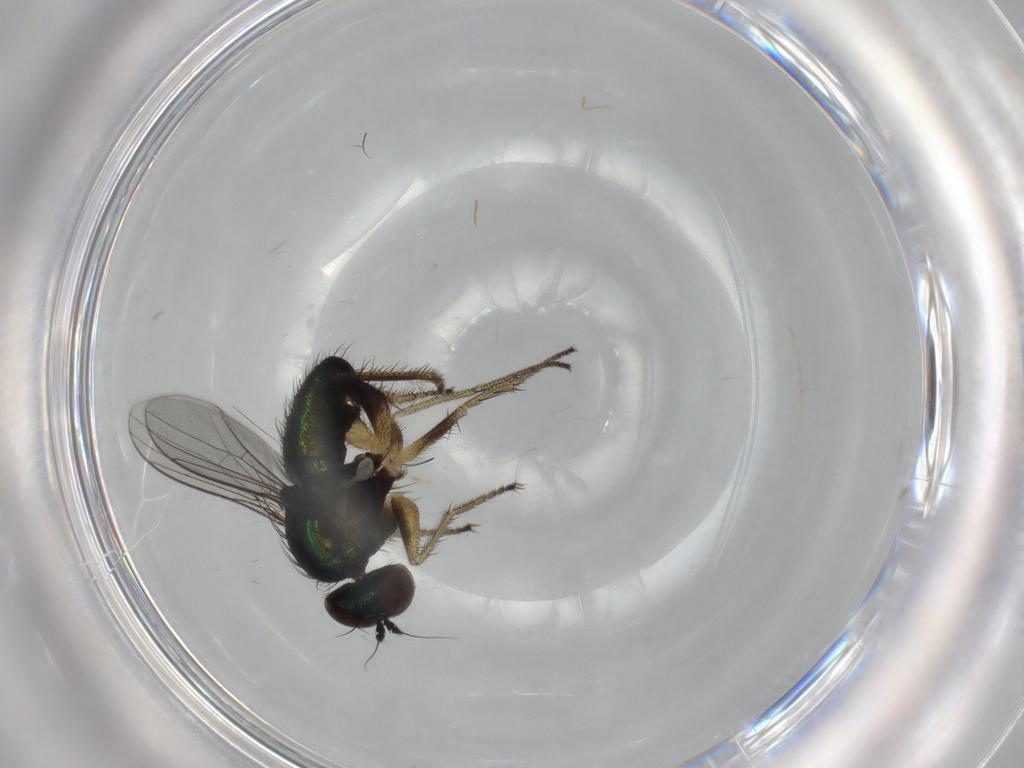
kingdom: Animalia
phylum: Arthropoda
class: Insecta
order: Diptera
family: Dolichopodidae
